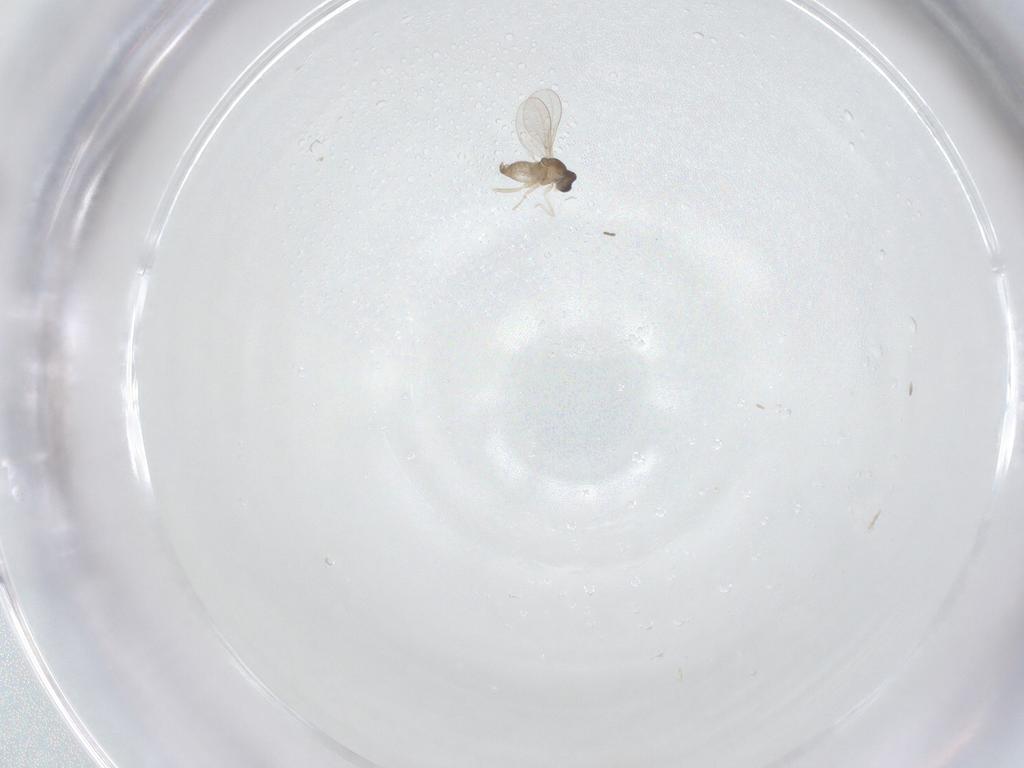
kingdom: Animalia
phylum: Arthropoda
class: Insecta
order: Diptera
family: Cecidomyiidae
